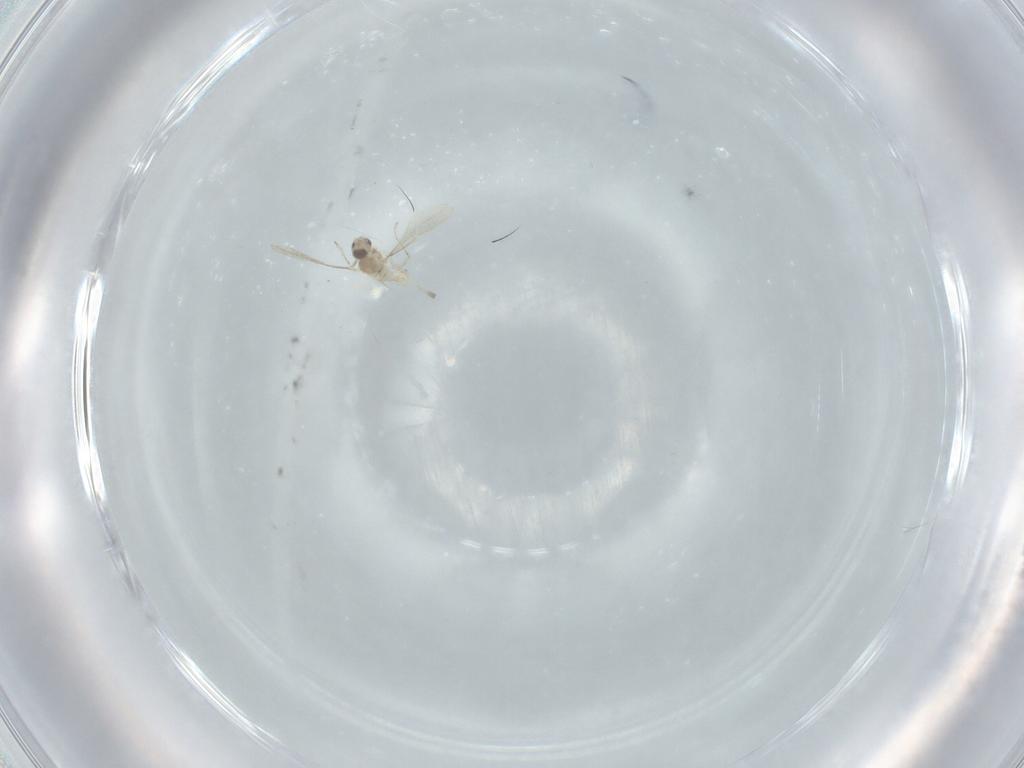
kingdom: Animalia
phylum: Arthropoda
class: Insecta
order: Diptera
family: Cecidomyiidae
